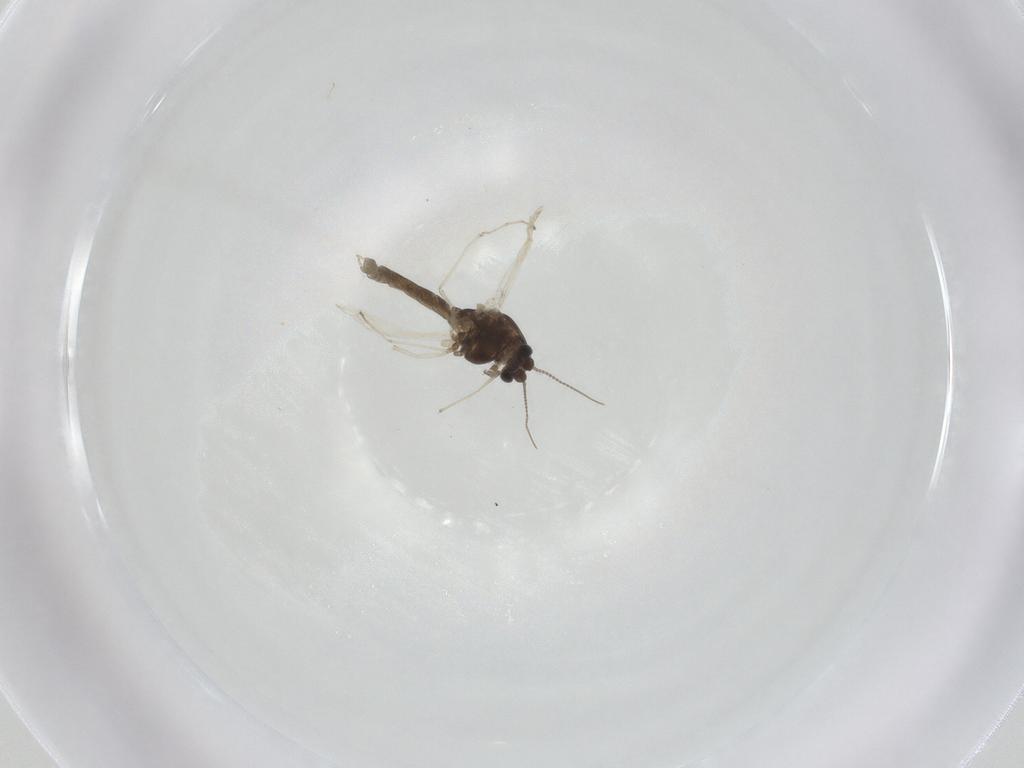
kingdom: Animalia
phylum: Arthropoda
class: Insecta
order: Diptera
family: Chironomidae
